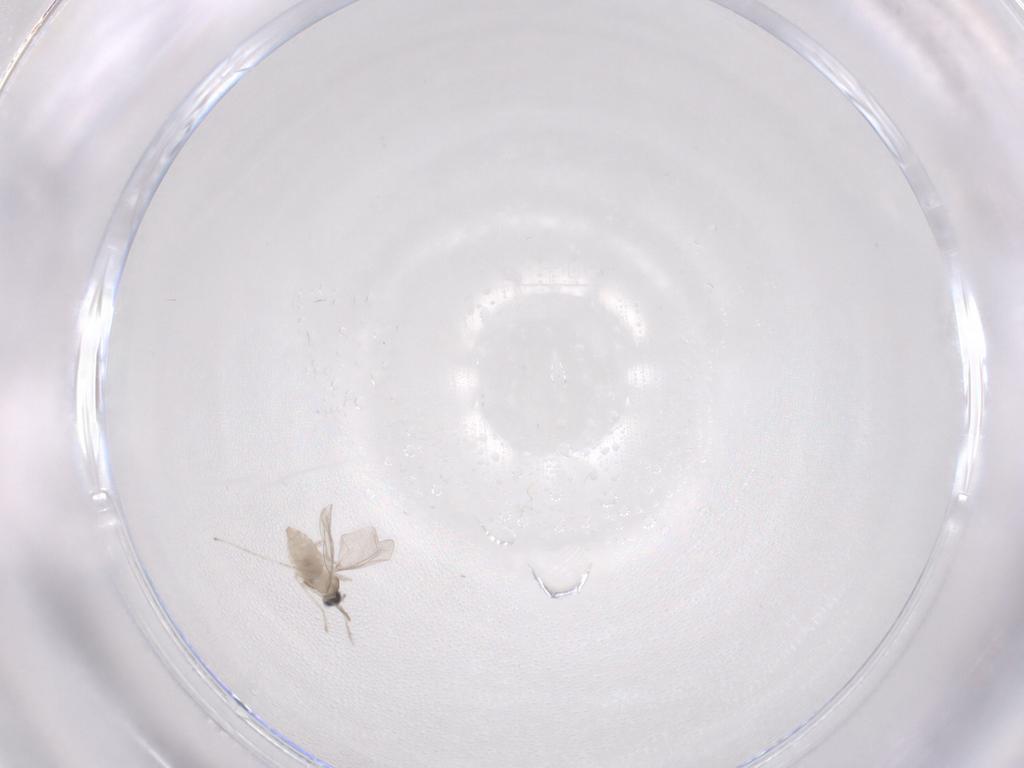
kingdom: Animalia
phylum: Arthropoda
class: Insecta
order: Diptera
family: Cecidomyiidae
